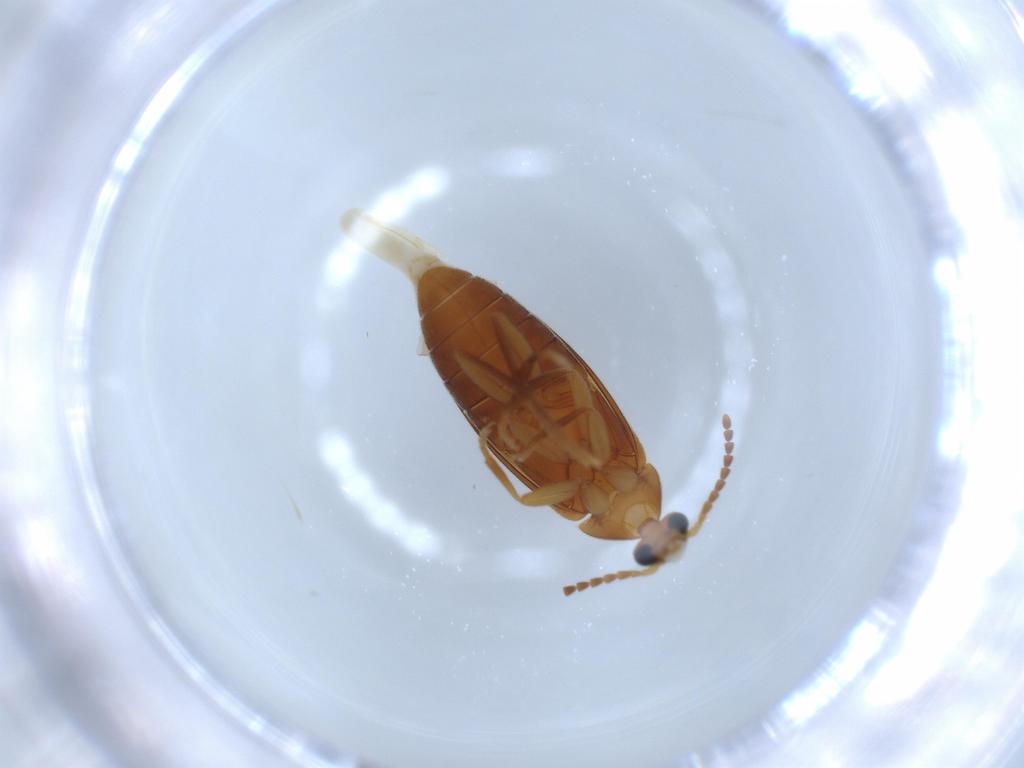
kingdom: Animalia
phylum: Arthropoda
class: Insecta
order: Coleoptera
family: Scraptiidae
